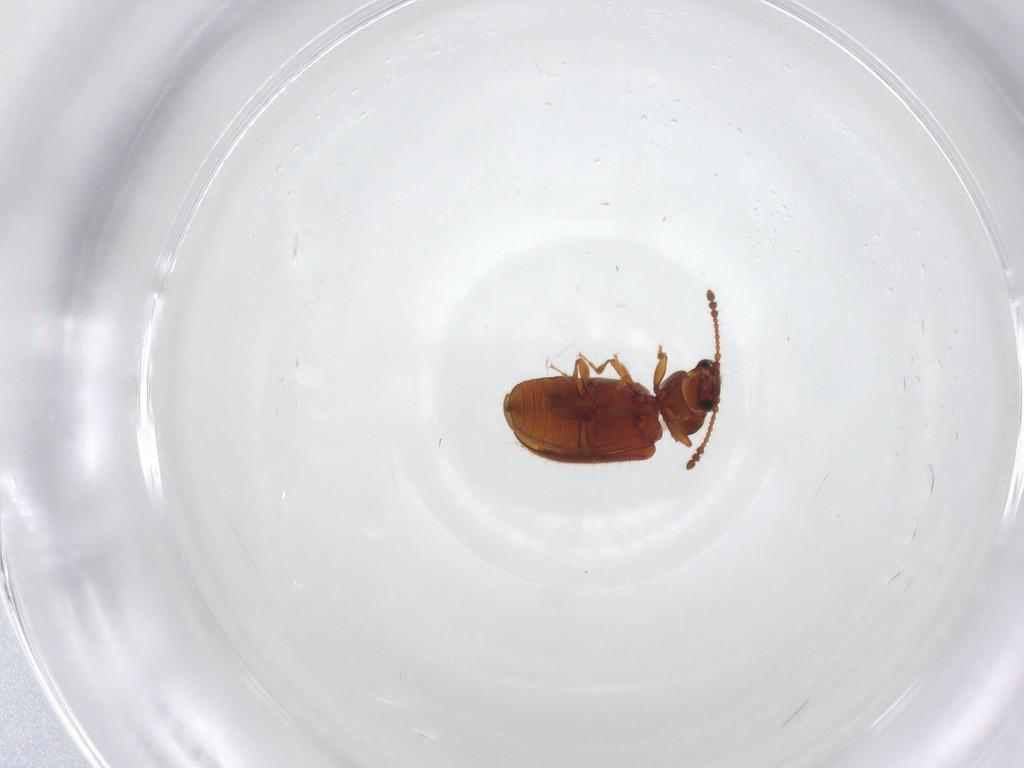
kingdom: Animalia
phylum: Arthropoda
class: Insecta
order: Coleoptera
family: Cryptophagidae
